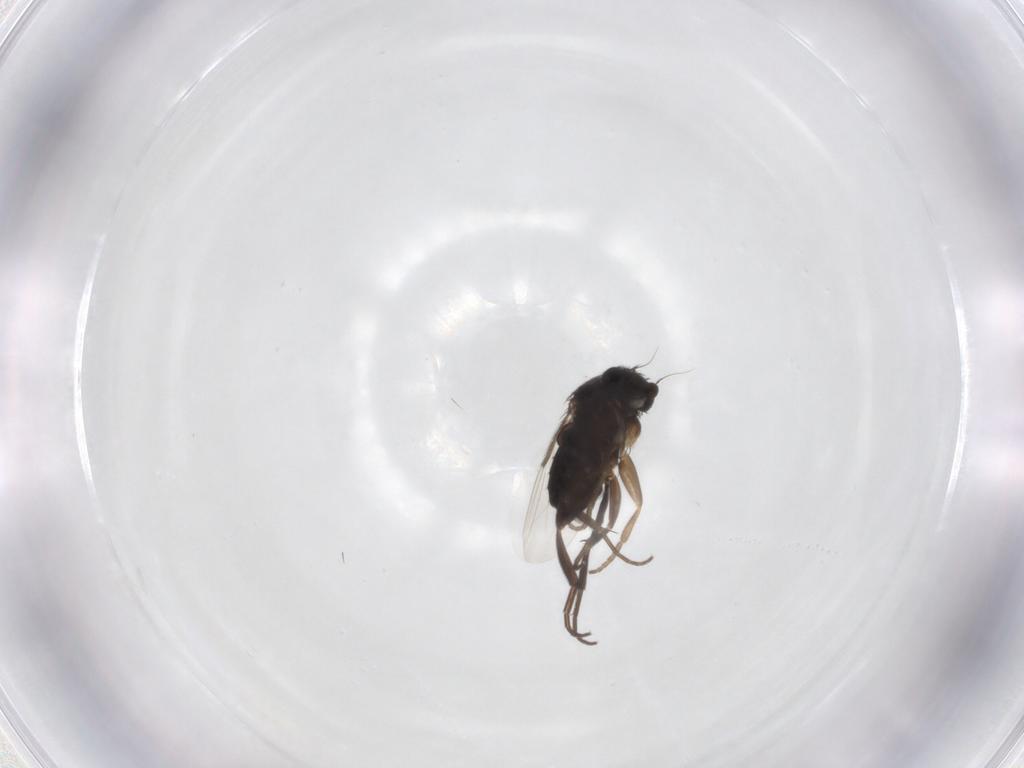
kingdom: Animalia
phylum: Arthropoda
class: Insecta
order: Diptera
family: Phoridae
